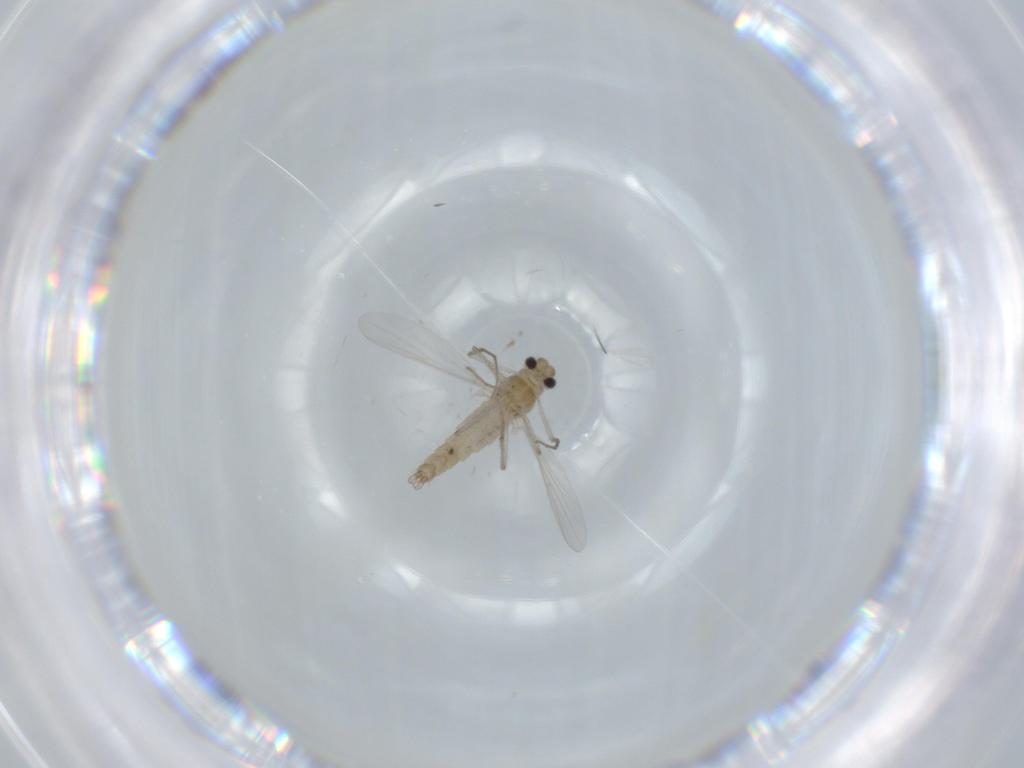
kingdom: Animalia
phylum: Arthropoda
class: Insecta
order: Diptera
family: Chironomidae
